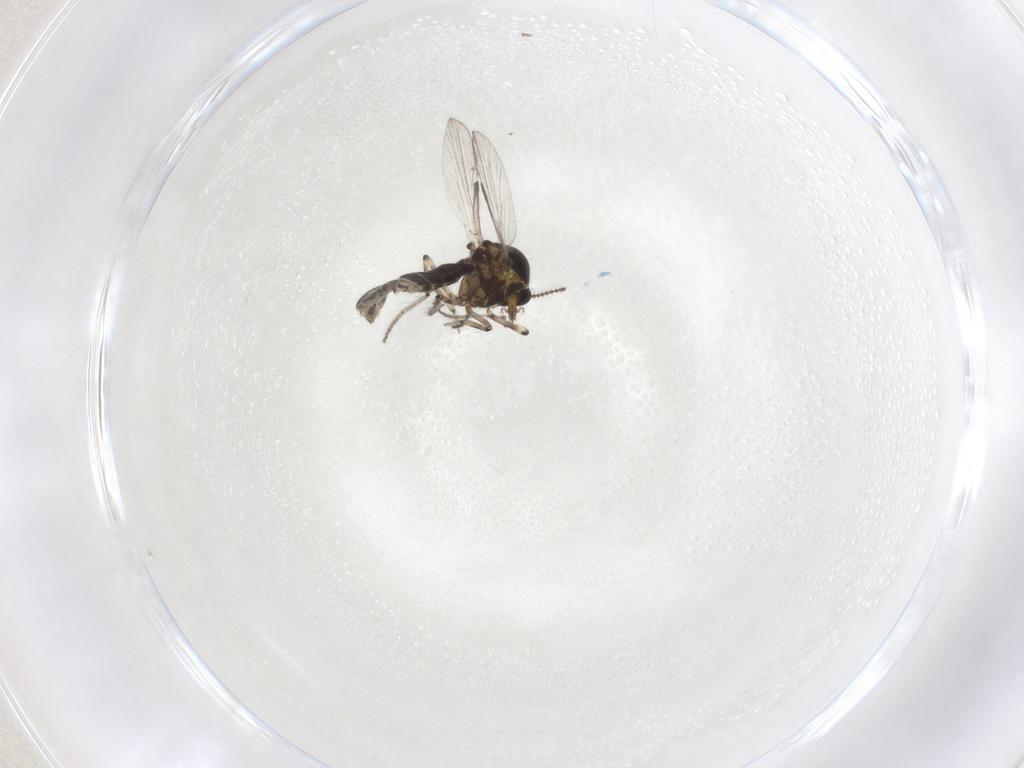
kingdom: Animalia
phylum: Arthropoda
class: Insecta
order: Diptera
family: Ceratopogonidae
